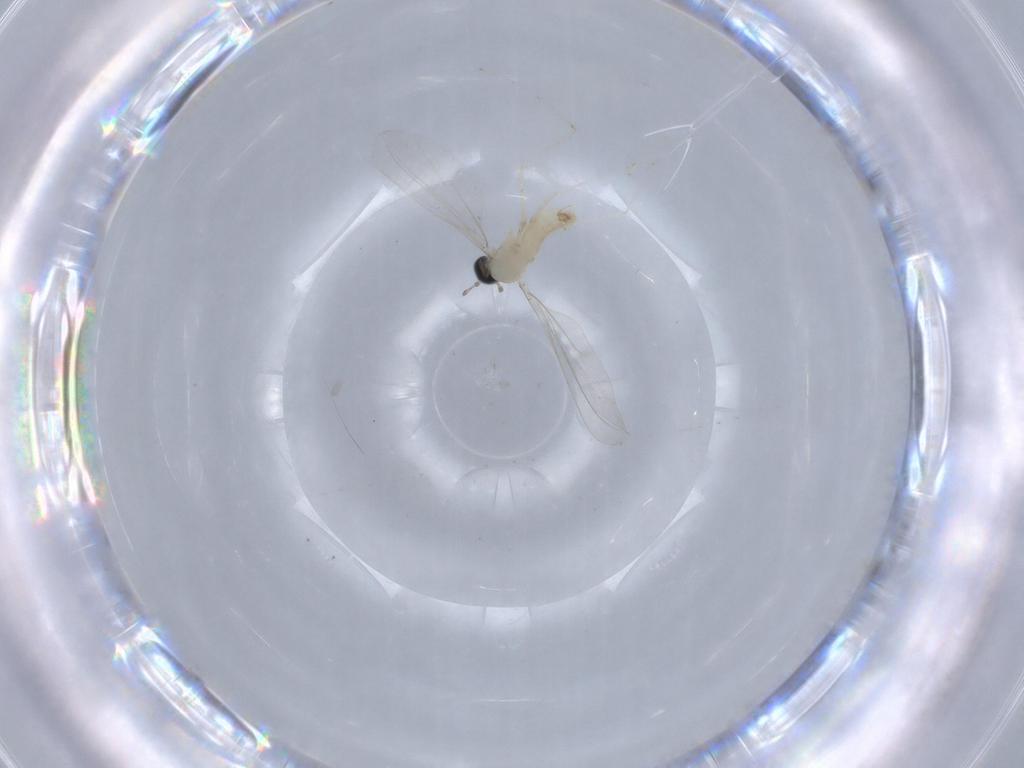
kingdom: Animalia
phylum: Arthropoda
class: Insecta
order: Diptera
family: Cecidomyiidae
